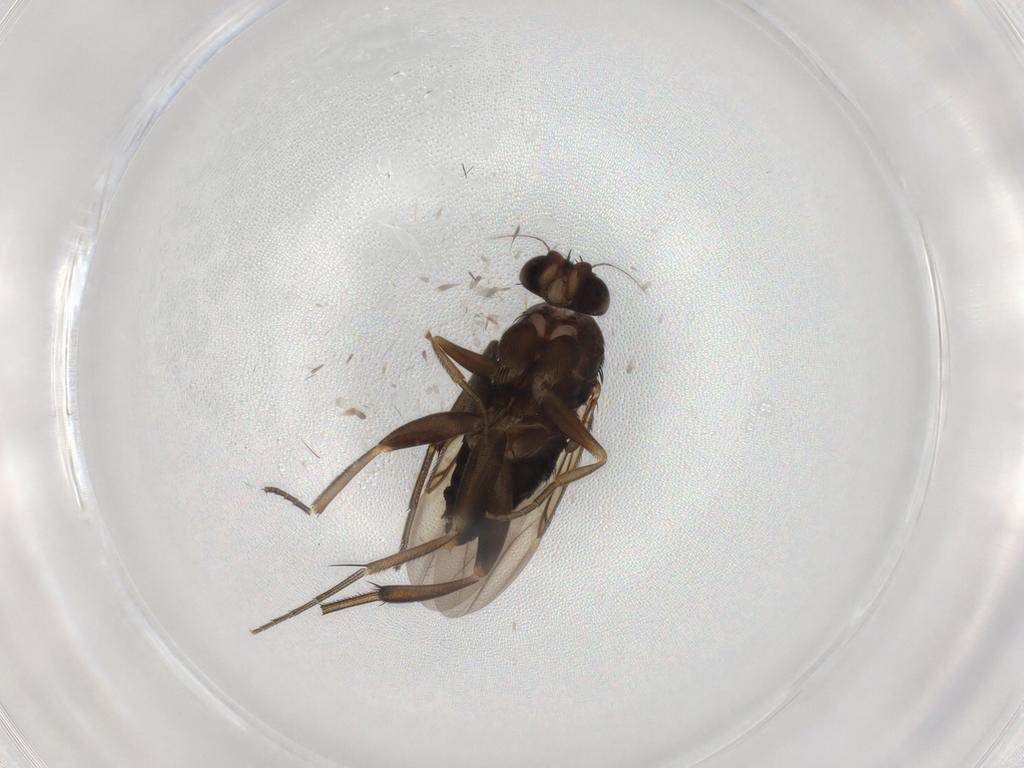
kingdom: Animalia
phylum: Arthropoda
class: Insecta
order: Diptera
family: Phoridae
